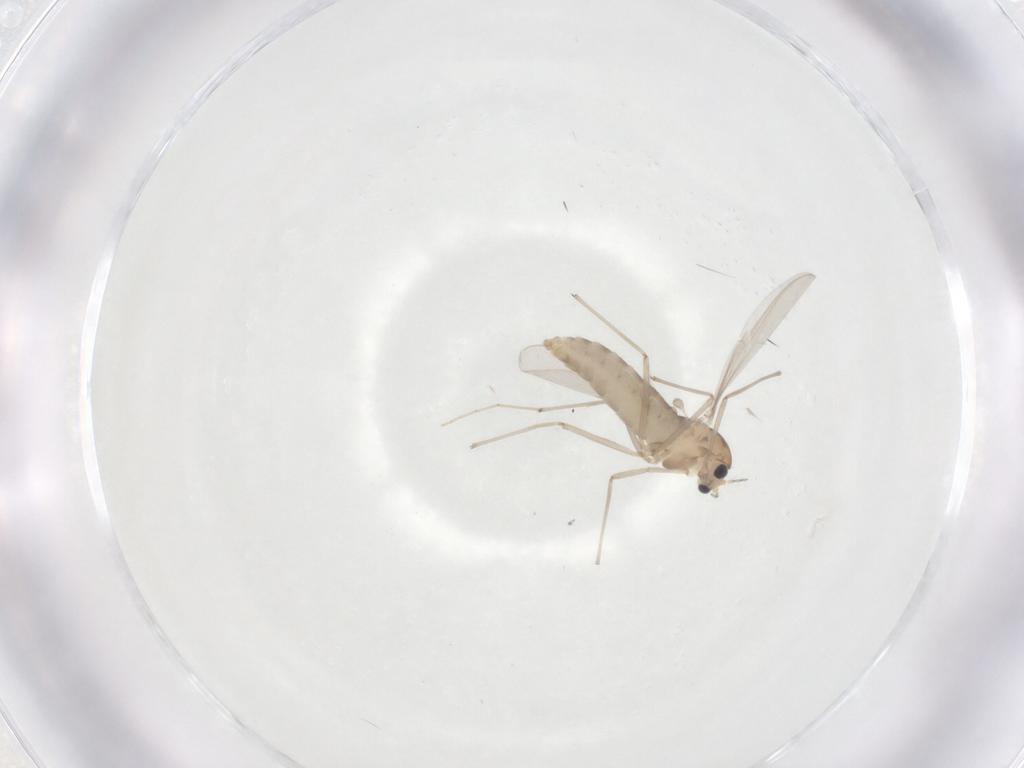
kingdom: Animalia
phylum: Arthropoda
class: Insecta
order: Diptera
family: Chironomidae
